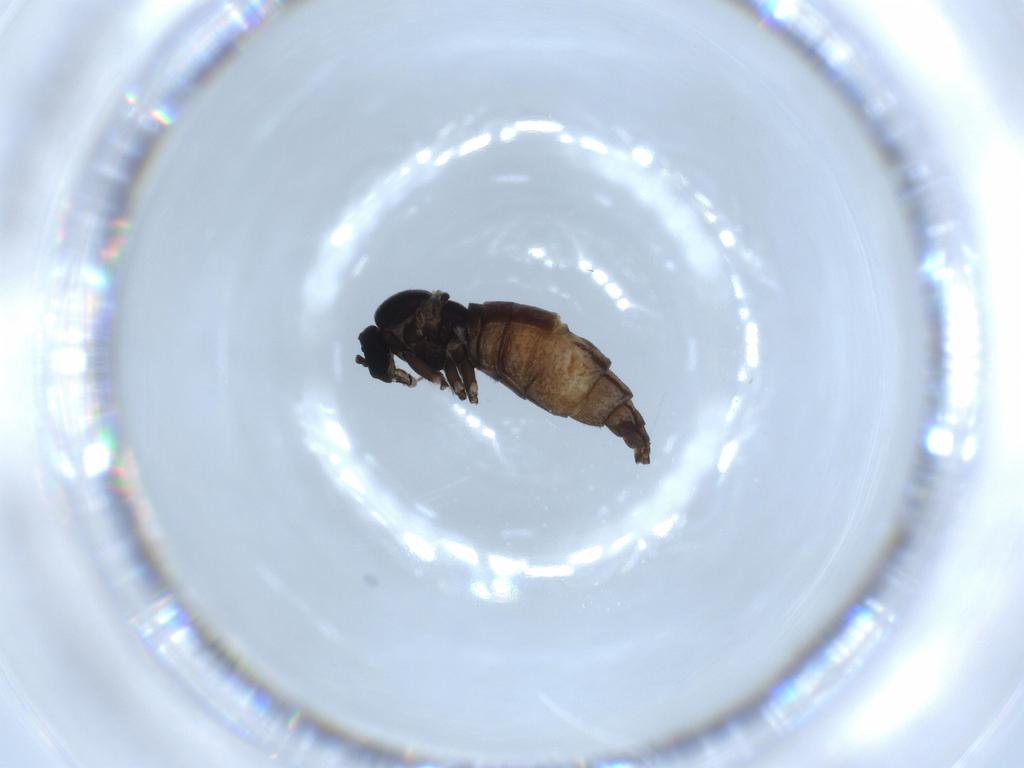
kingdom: Animalia
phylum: Arthropoda
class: Insecta
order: Diptera
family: Sciaridae
